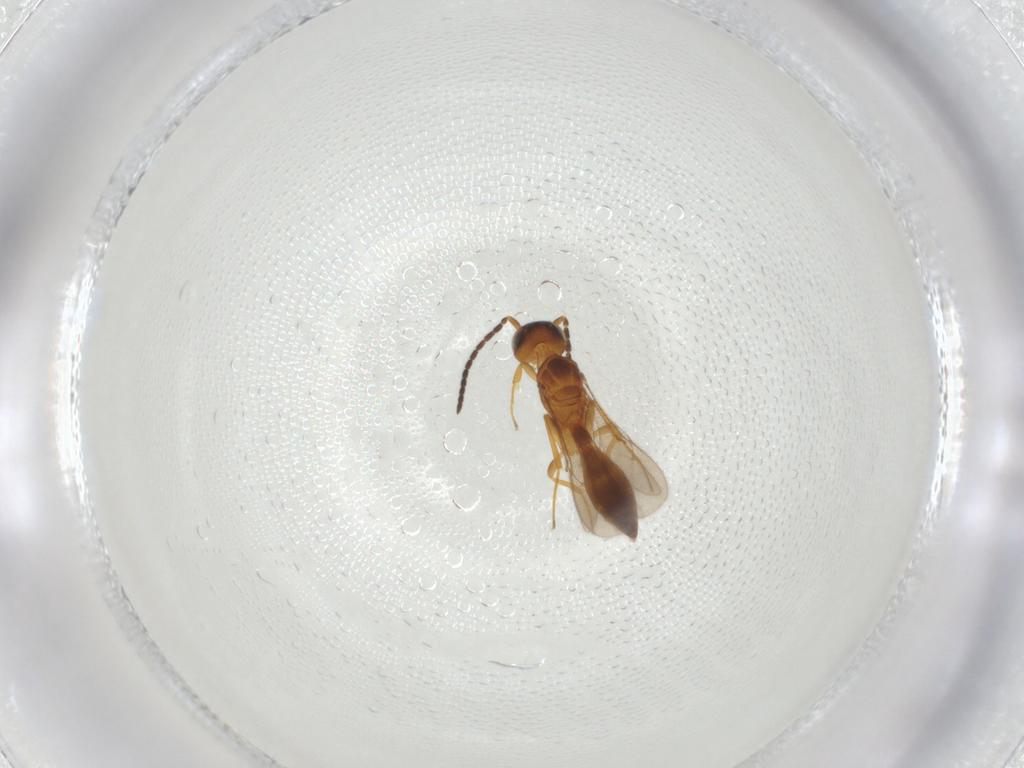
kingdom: Animalia
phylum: Arthropoda
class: Insecta
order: Hymenoptera
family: Scelionidae
